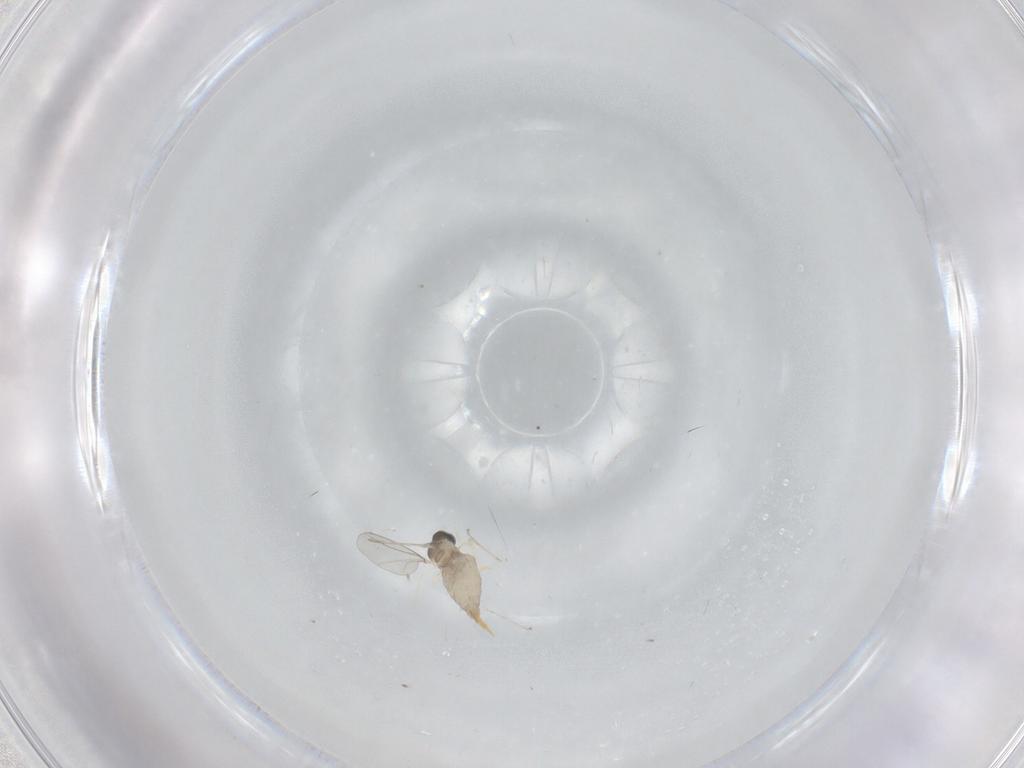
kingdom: Animalia
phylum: Arthropoda
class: Insecta
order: Diptera
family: Cecidomyiidae
